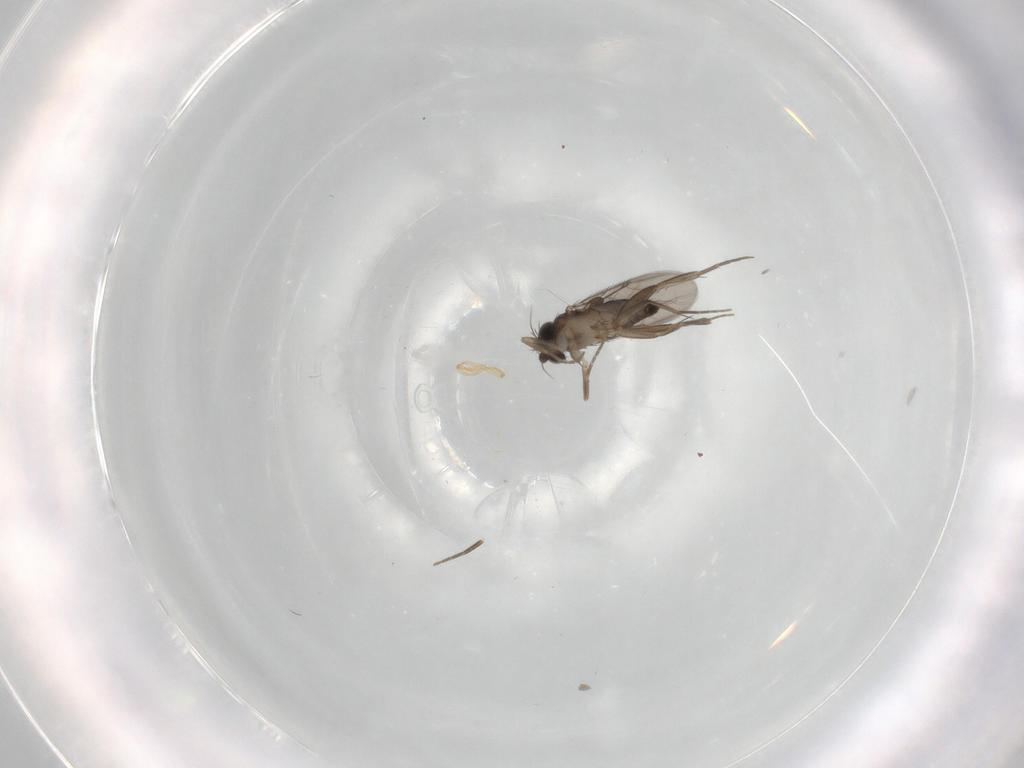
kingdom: Animalia
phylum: Arthropoda
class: Insecta
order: Diptera
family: Phoridae
